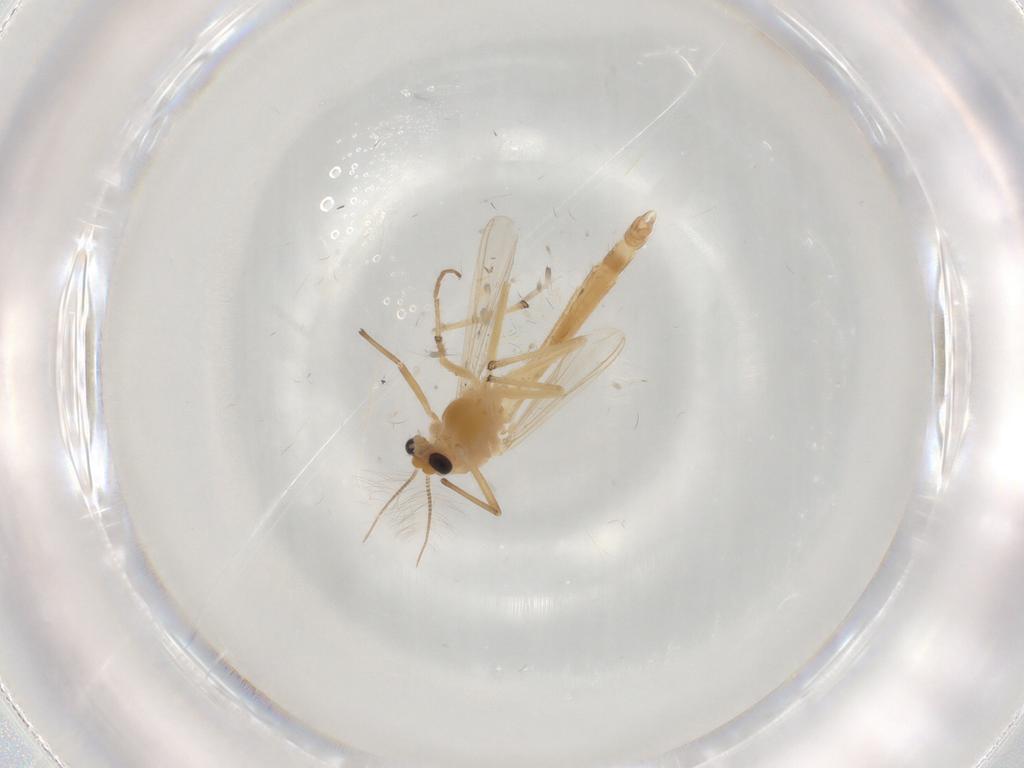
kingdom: Animalia
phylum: Arthropoda
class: Insecta
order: Diptera
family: Chironomidae
